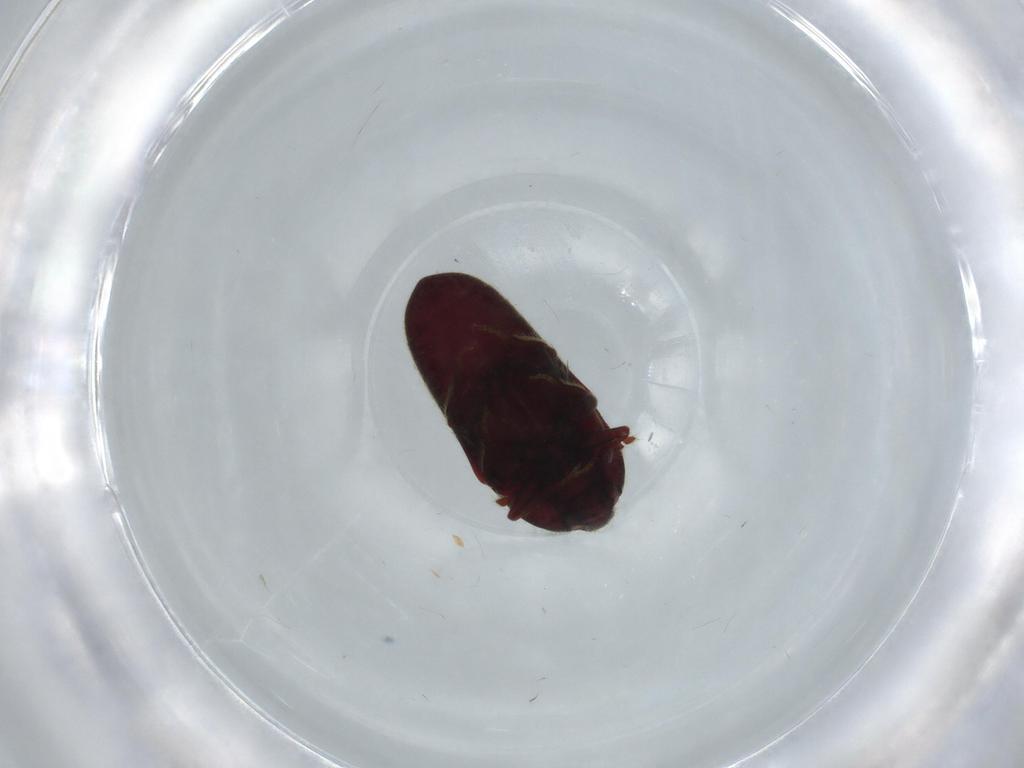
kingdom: Animalia
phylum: Arthropoda
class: Insecta
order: Coleoptera
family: Throscidae
